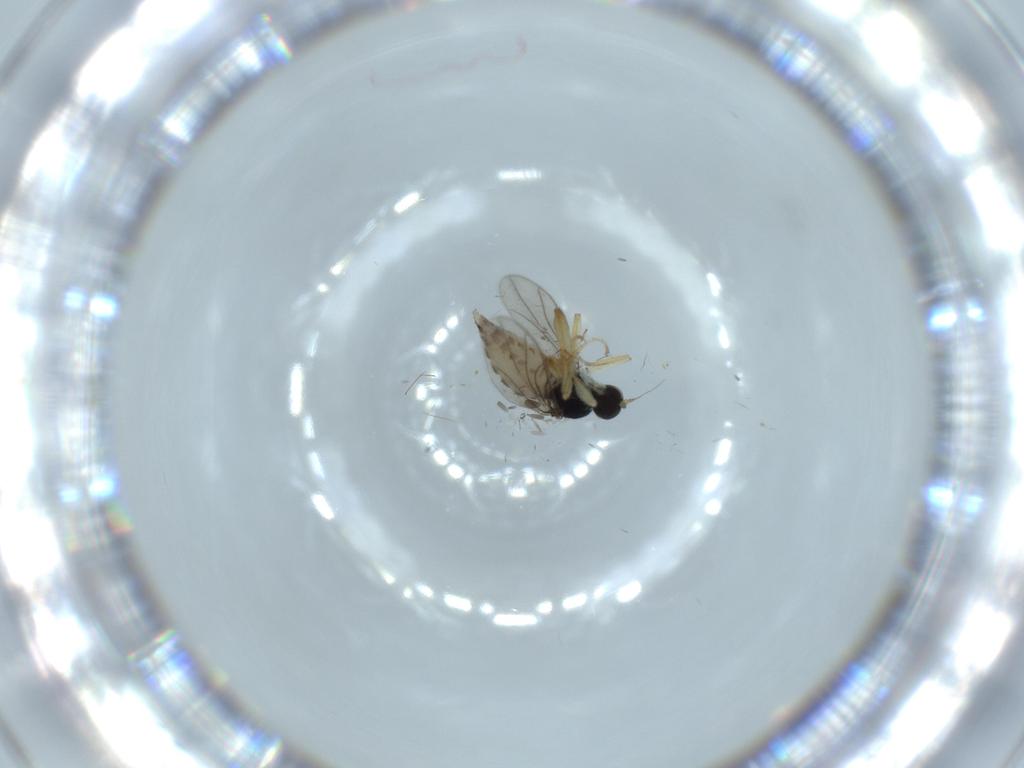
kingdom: Animalia
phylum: Arthropoda
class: Insecta
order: Diptera
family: Hybotidae
